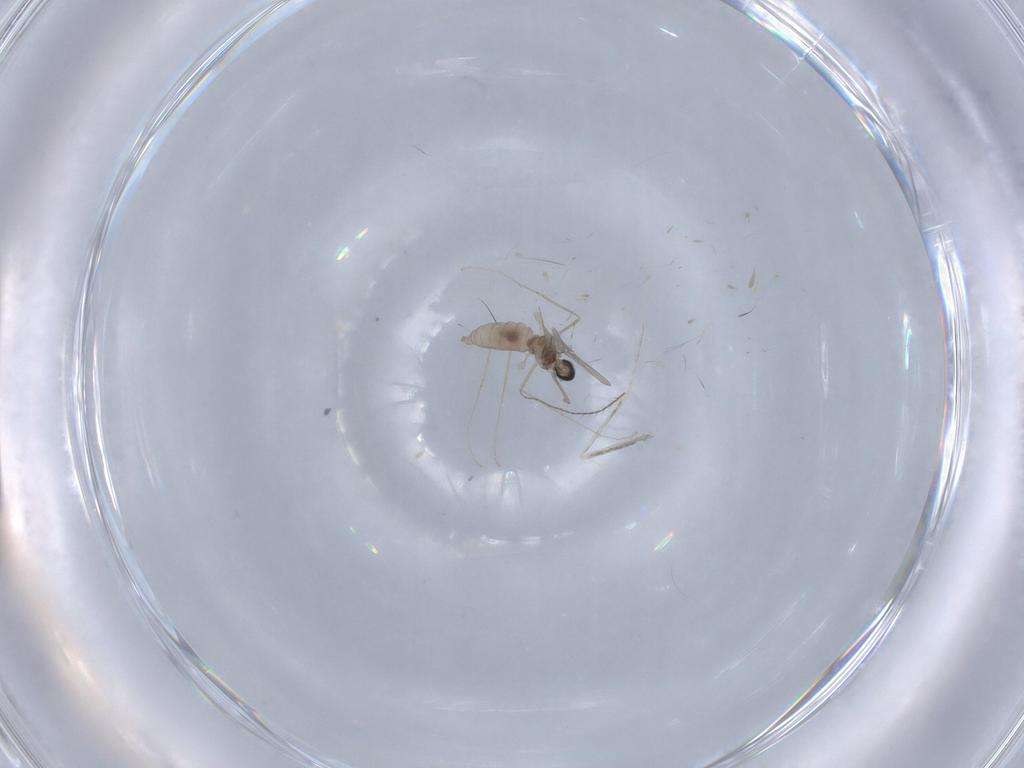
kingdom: Animalia
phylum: Arthropoda
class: Insecta
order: Diptera
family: Cecidomyiidae
